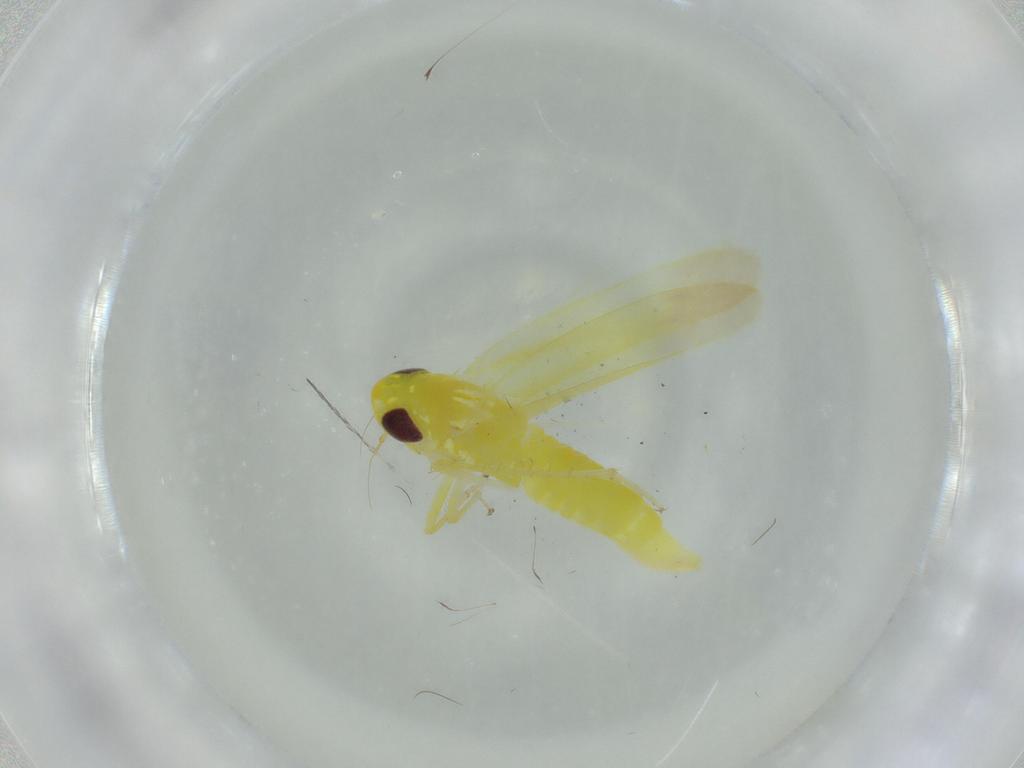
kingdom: Animalia
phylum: Arthropoda
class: Insecta
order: Hemiptera
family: Cicadellidae
